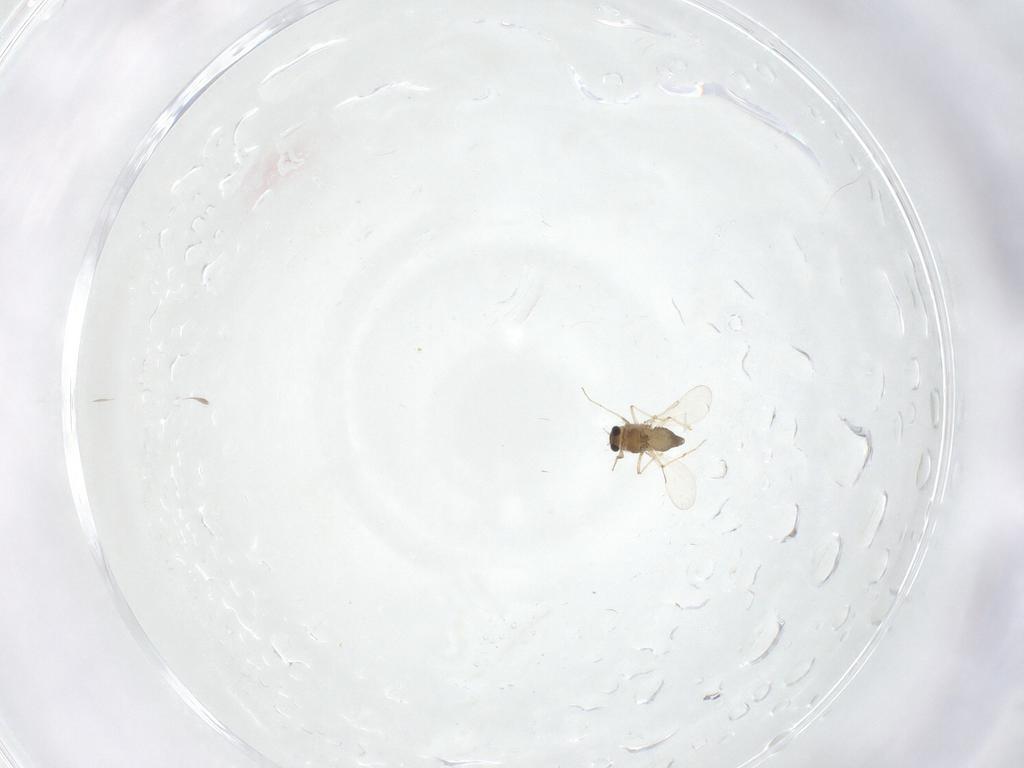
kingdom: Animalia
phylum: Arthropoda
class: Insecta
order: Diptera
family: Chironomidae
